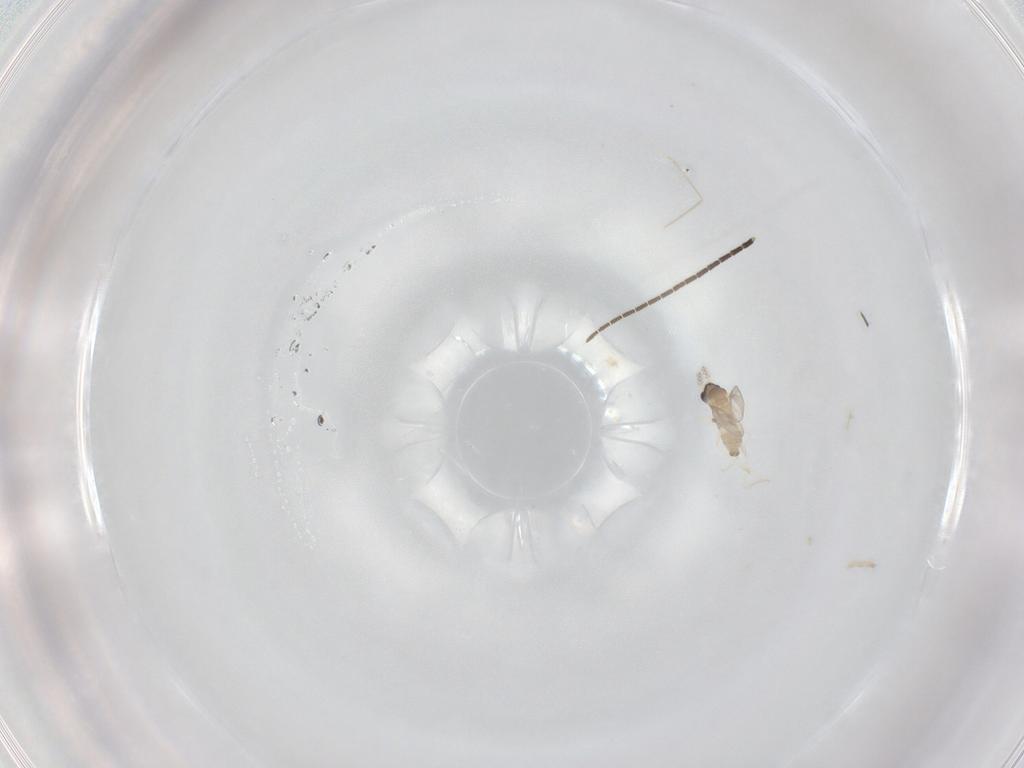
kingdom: Animalia
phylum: Arthropoda
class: Insecta
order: Diptera
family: Sciaridae
